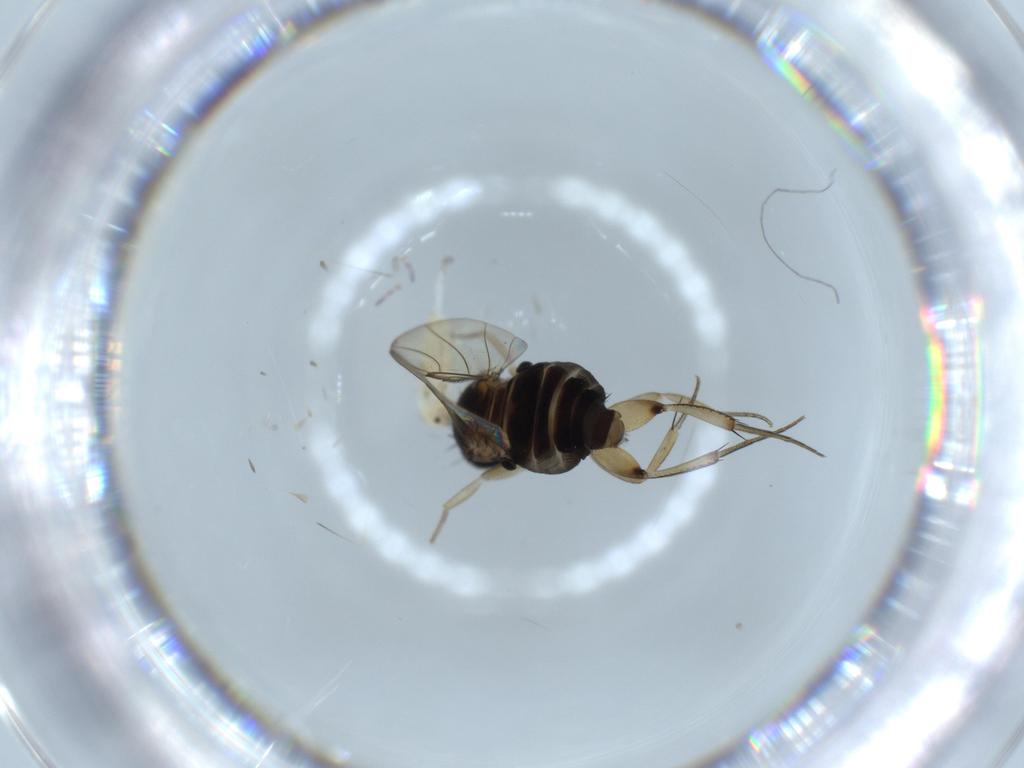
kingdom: Animalia
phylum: Arthropoda
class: Insecta
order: Diptera
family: Phoridae
